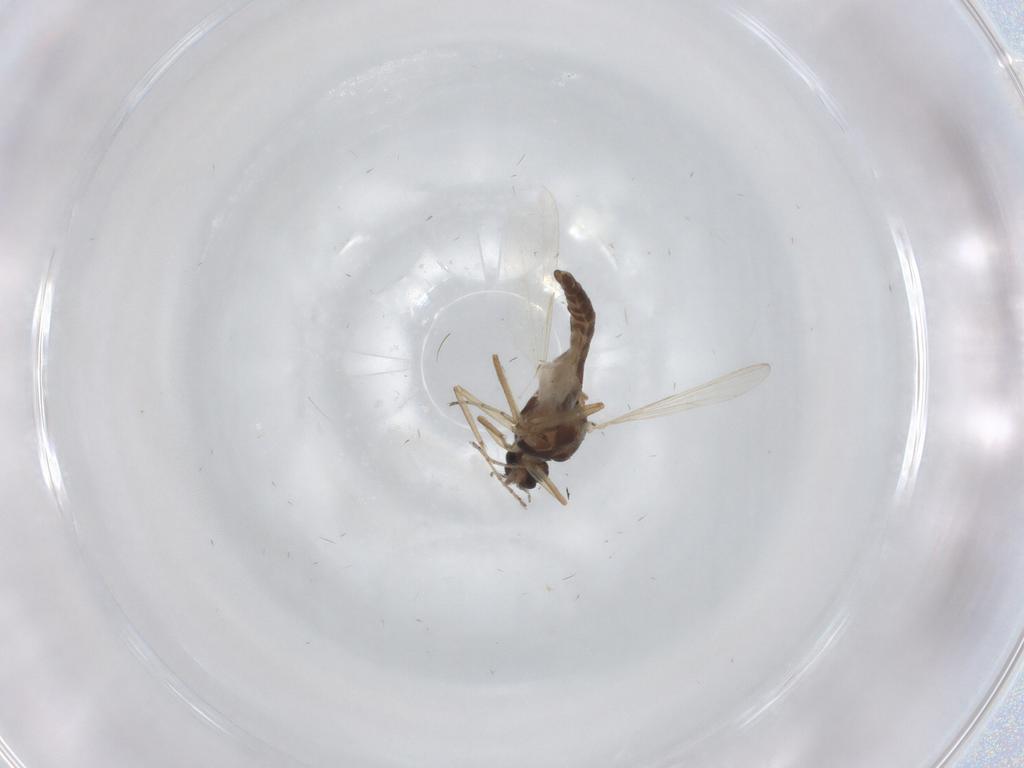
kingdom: Animalia
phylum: Arthropoda
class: Insecta
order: Diptera
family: Ceratopogonidae
